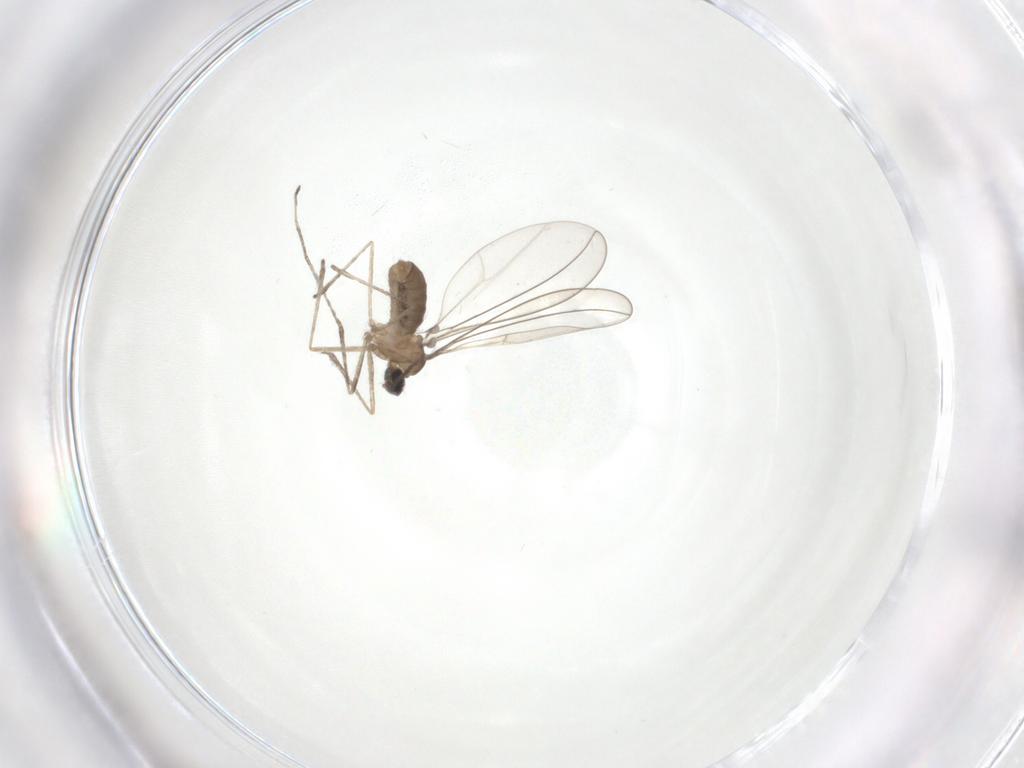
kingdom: Animalia
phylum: Arthropoda
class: Insecta
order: Diptera
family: Cecidomyiidae
